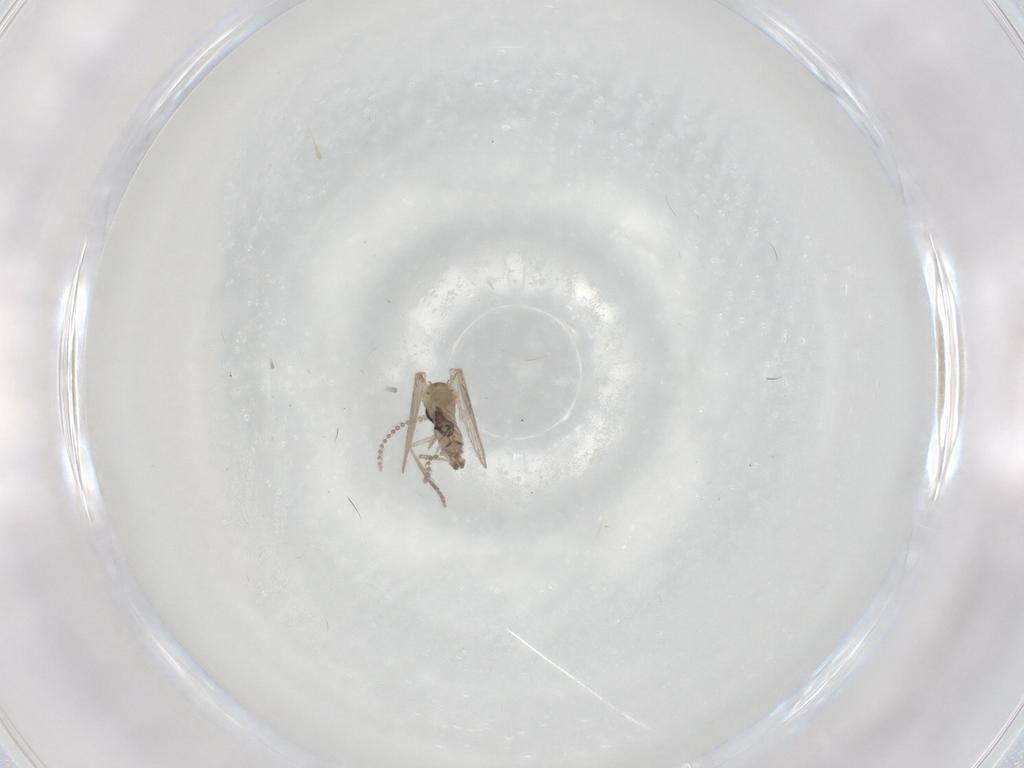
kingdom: Animalia
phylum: Arthropoda
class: Insecta
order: Diptera
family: Psychodidae
